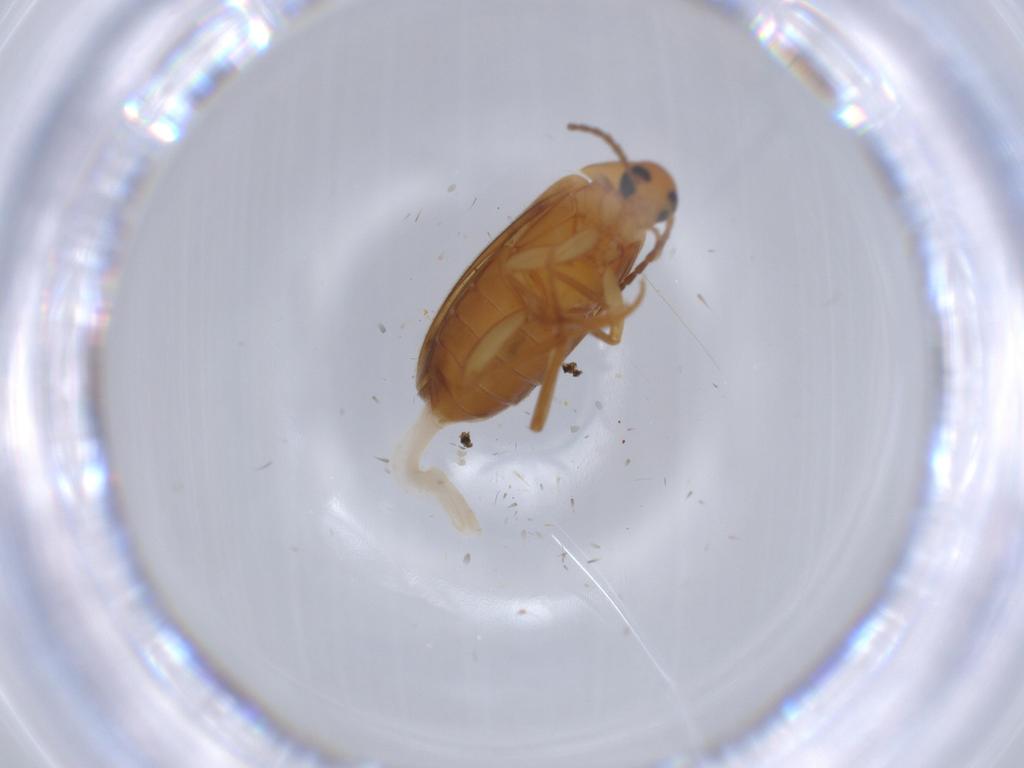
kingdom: Animalia
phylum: Arthropoda
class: Insecta
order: Coleoptera
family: Scraptiidae
